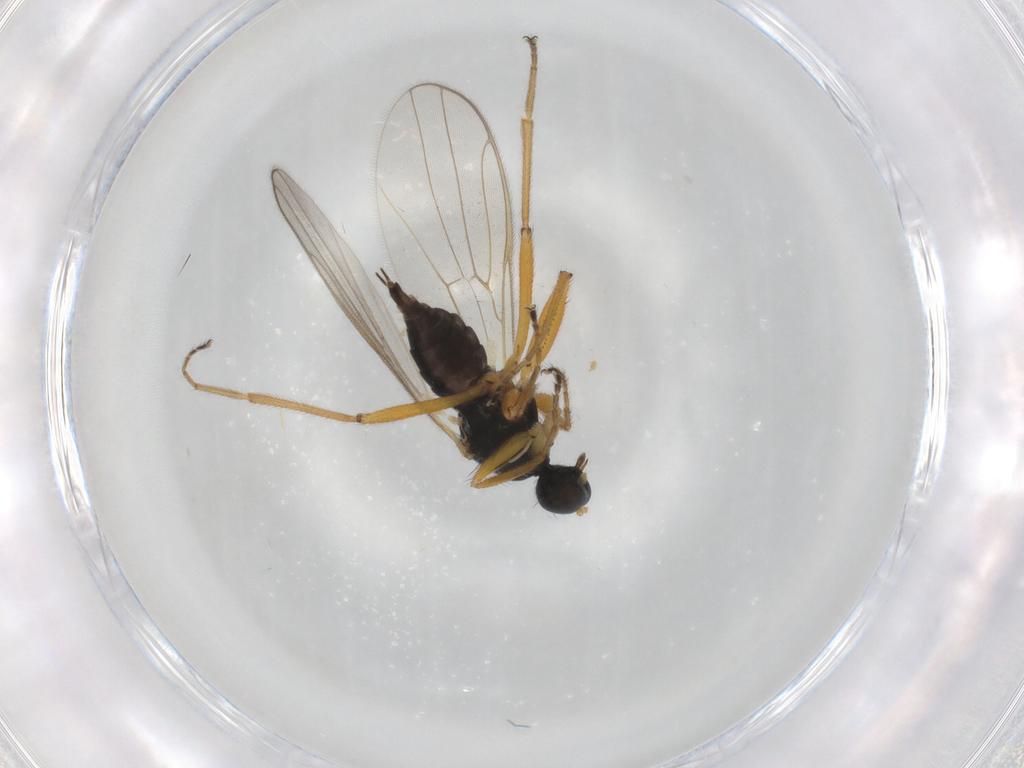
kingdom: Animalia
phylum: Arthropoda
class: Insecta
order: Diptera
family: Hybotidae
